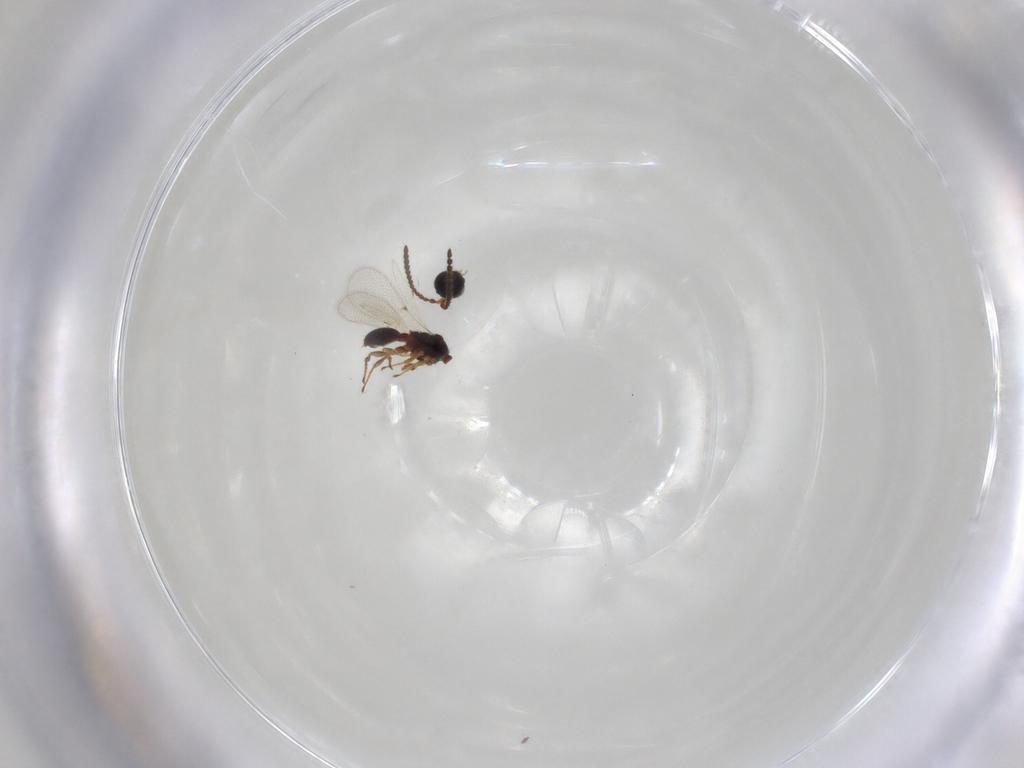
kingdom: Animalia
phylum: Arthropoda
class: Insecta
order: Hymenoptera
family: Diapriidae
